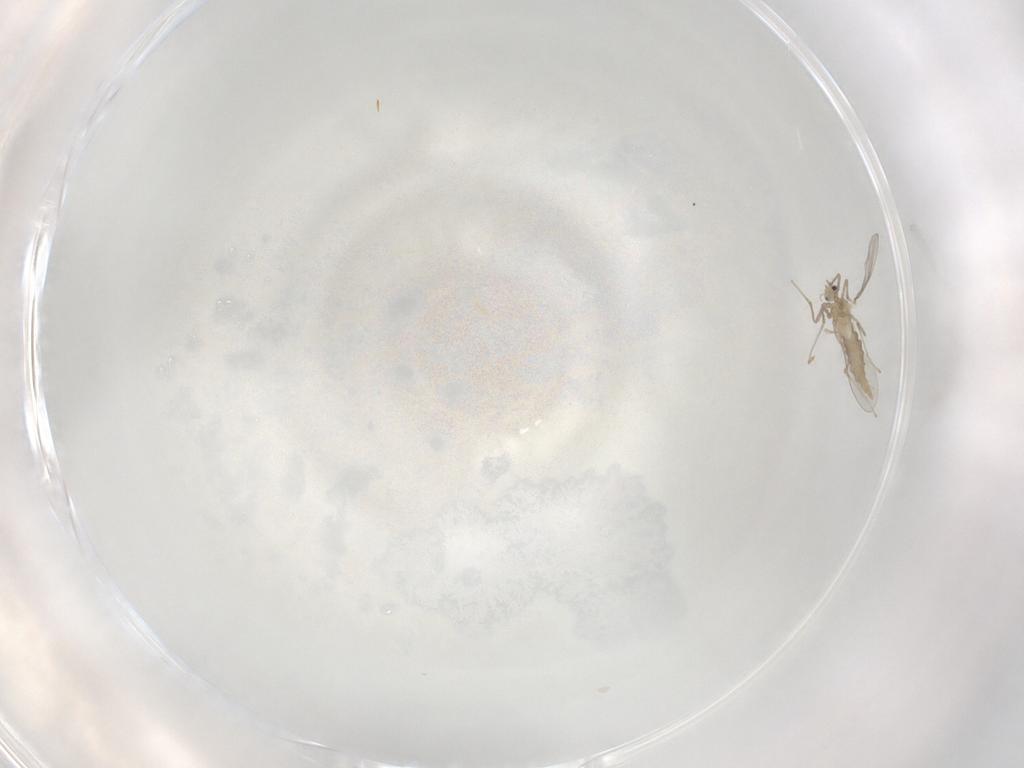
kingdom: Animalia
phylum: Arthropoda
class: Insecta
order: Diptera
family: Cecidomyiidae
